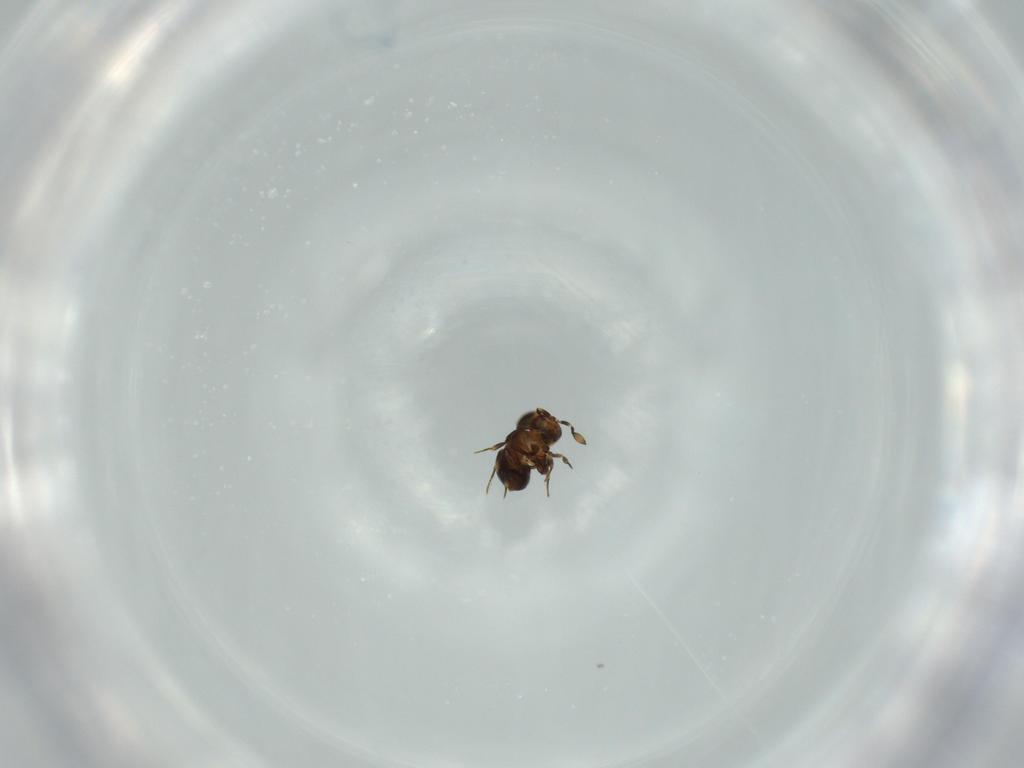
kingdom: Animalia
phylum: Arthropoda
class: Insecta
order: Hymenoptera
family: Scelionidae
